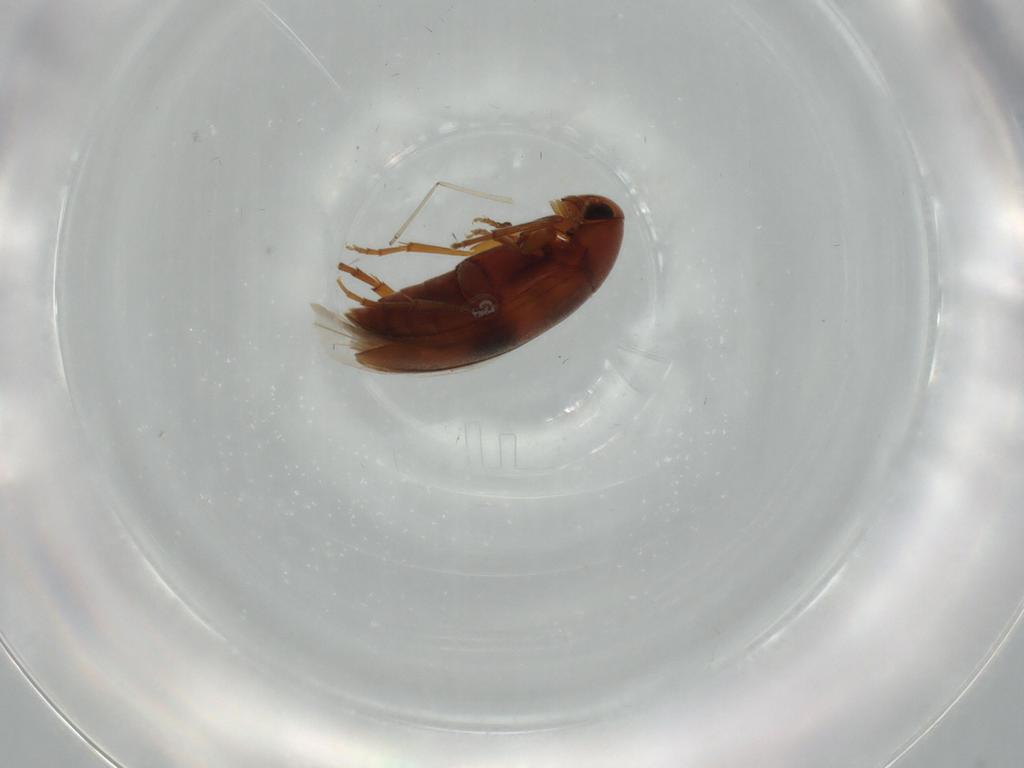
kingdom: Animalia
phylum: Arthropoda
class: Insecta
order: Coleoptera
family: Scraptiidae
